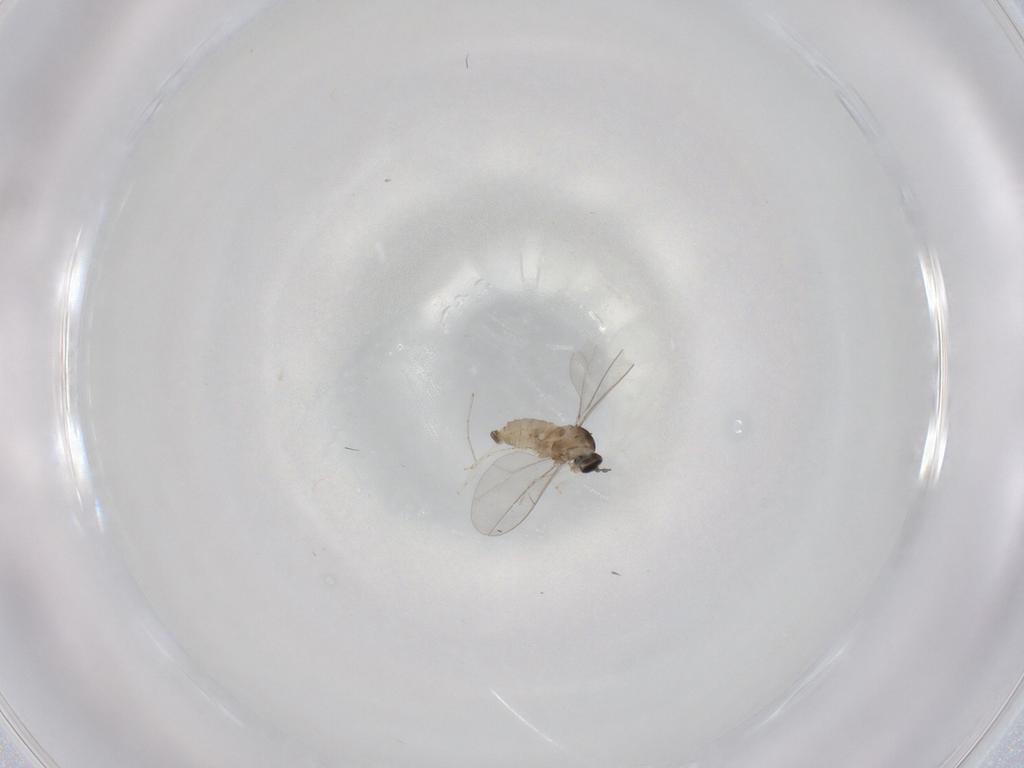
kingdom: Animalia
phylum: Arthropoda
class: Insecta
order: Diptera
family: Cecidomyiidae
